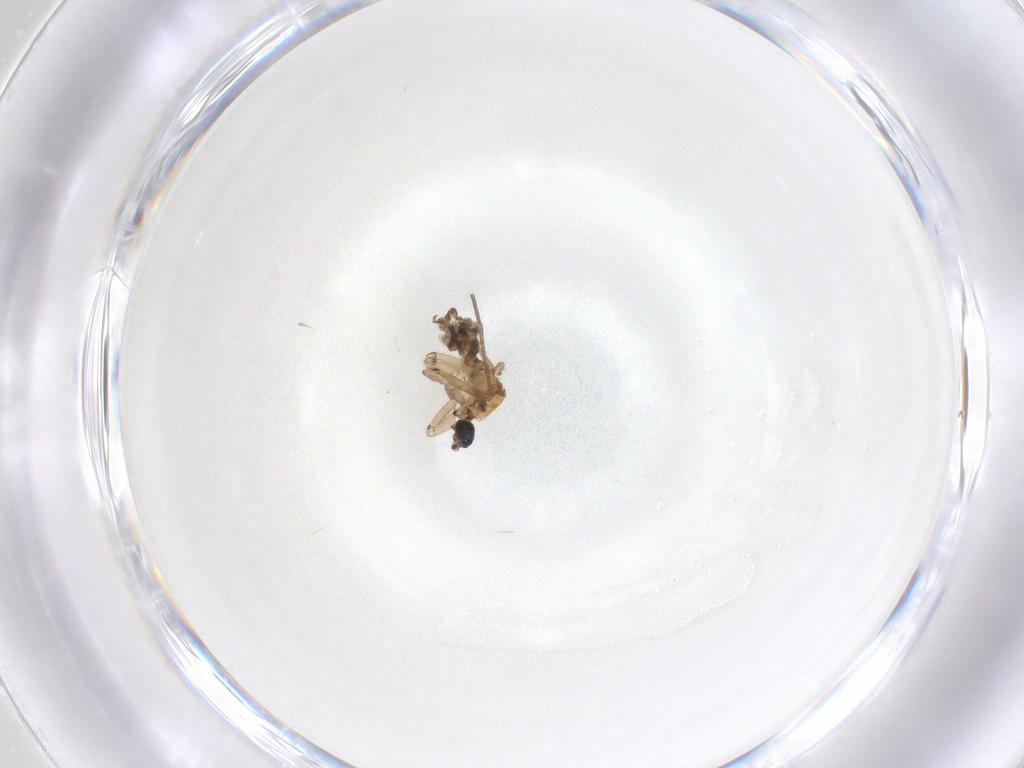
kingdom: Animalia
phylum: Arthropoda
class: Insecta
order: Diptera
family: Sciaridae
